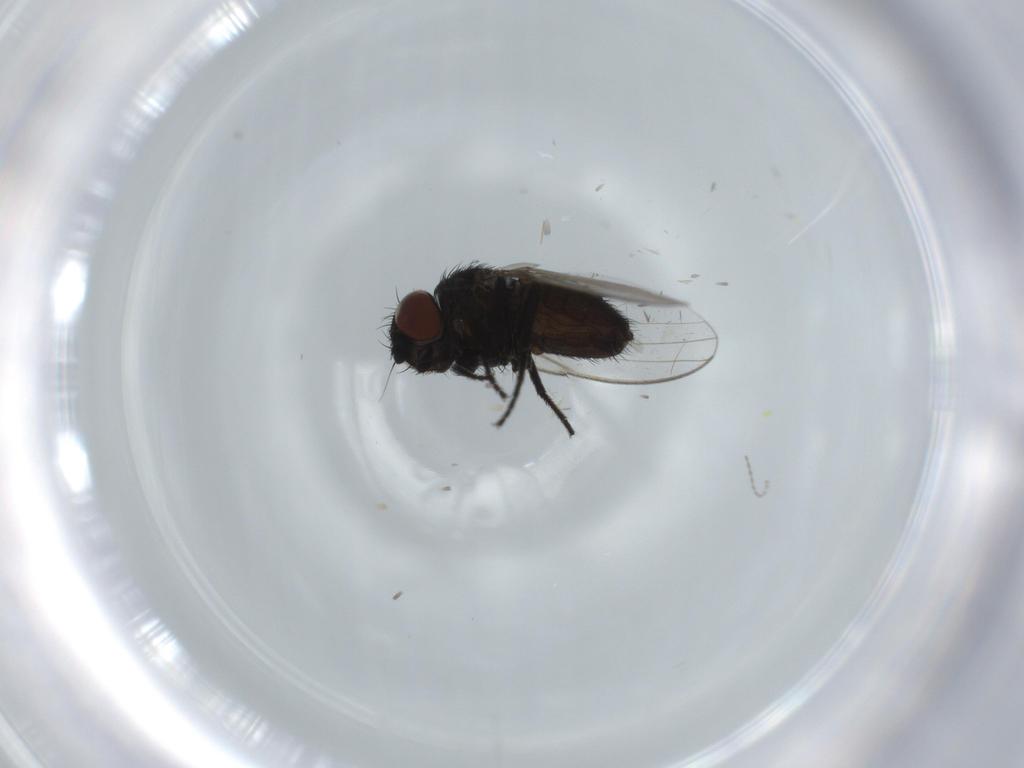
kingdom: Animalia
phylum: Arthropoda
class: Insecta
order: Diptera
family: Milichiidae
